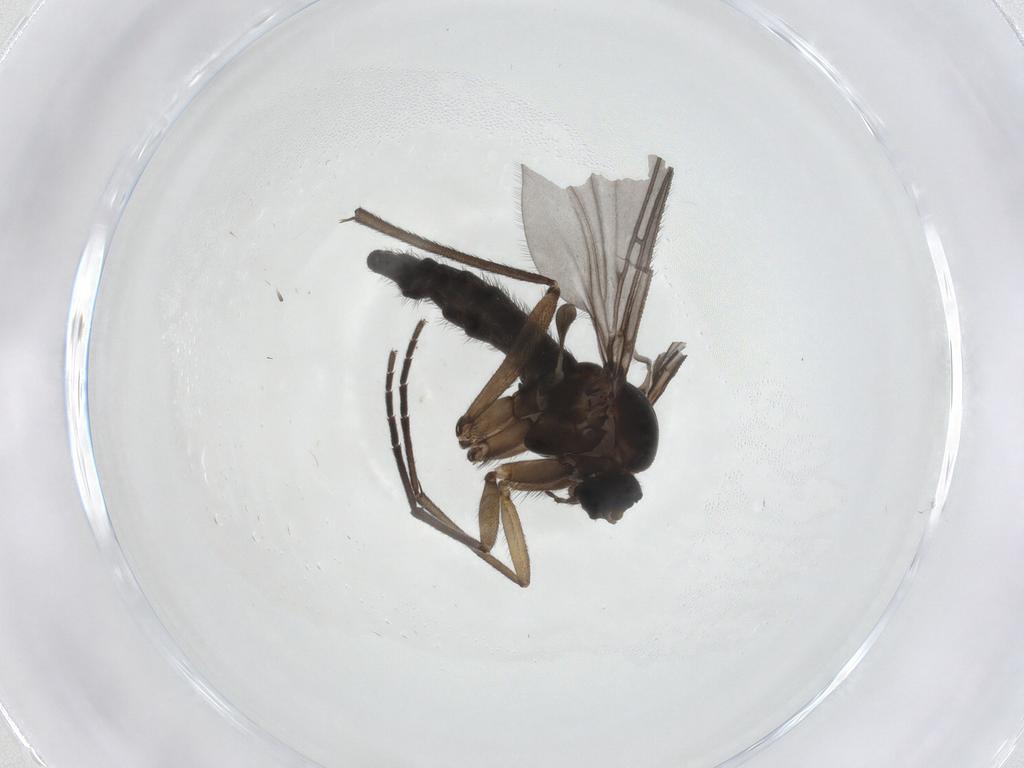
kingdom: Animalia
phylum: Arthropoda
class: Insecta
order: Diptera
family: Sciaridae
